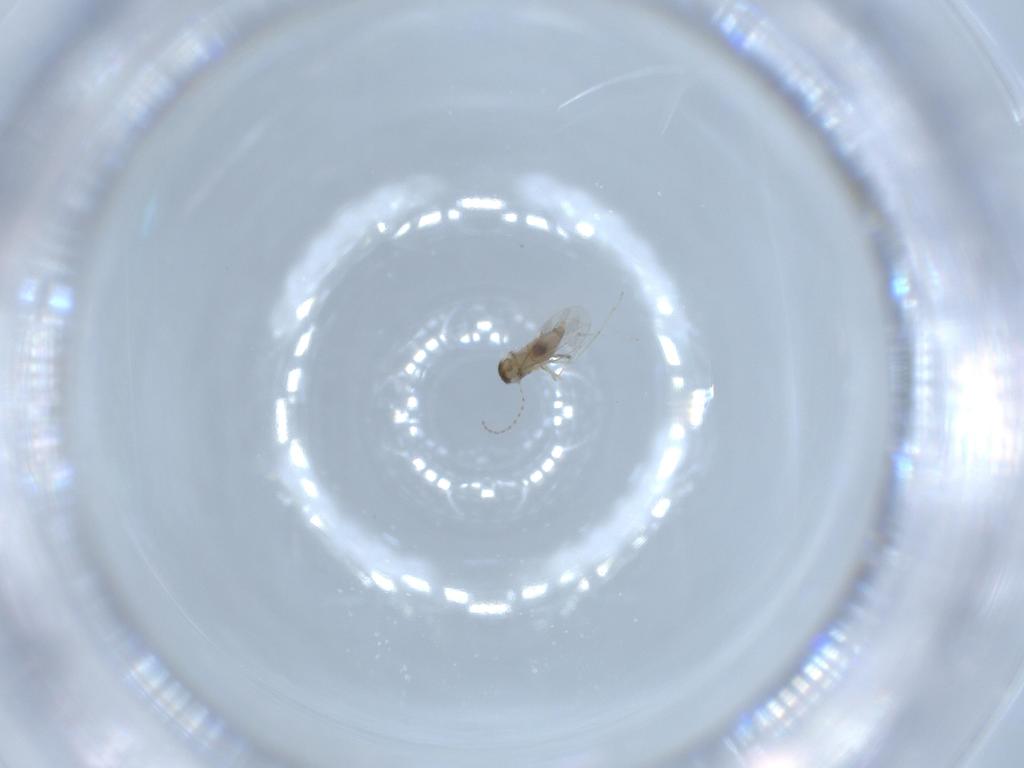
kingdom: Animalia
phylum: Arthropoda
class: Insecta
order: Diptera
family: Cecidomyiidae
